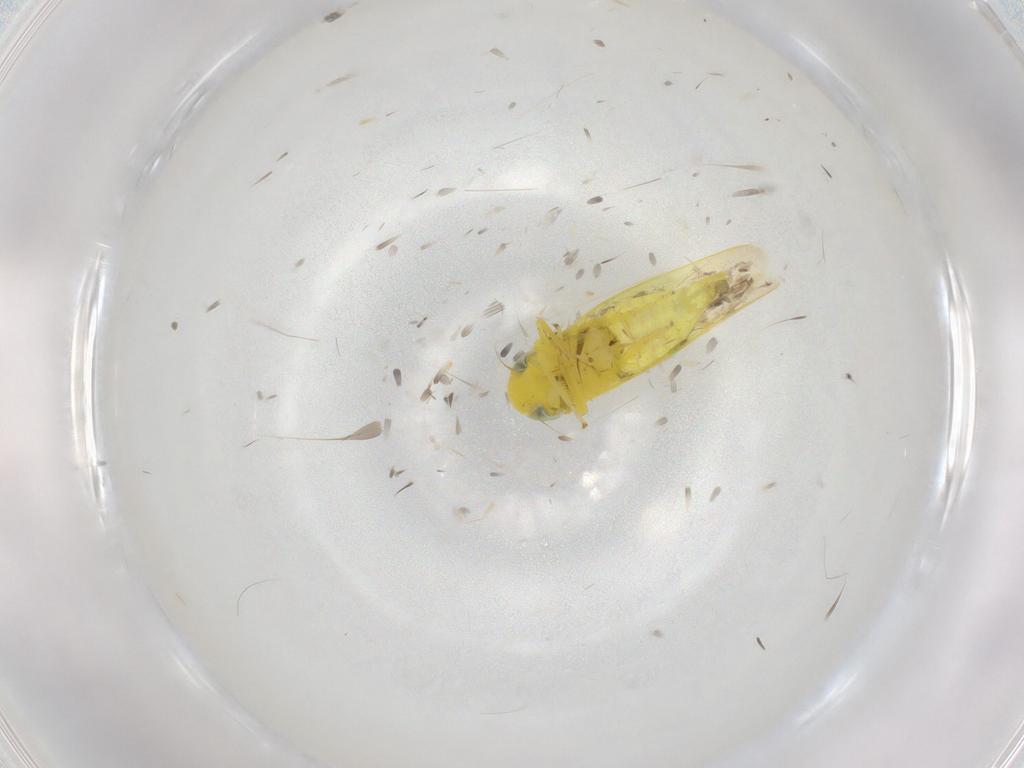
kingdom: Animalia
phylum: Arthropoda
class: Insecta
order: Hemiptera
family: Cicadellidae
